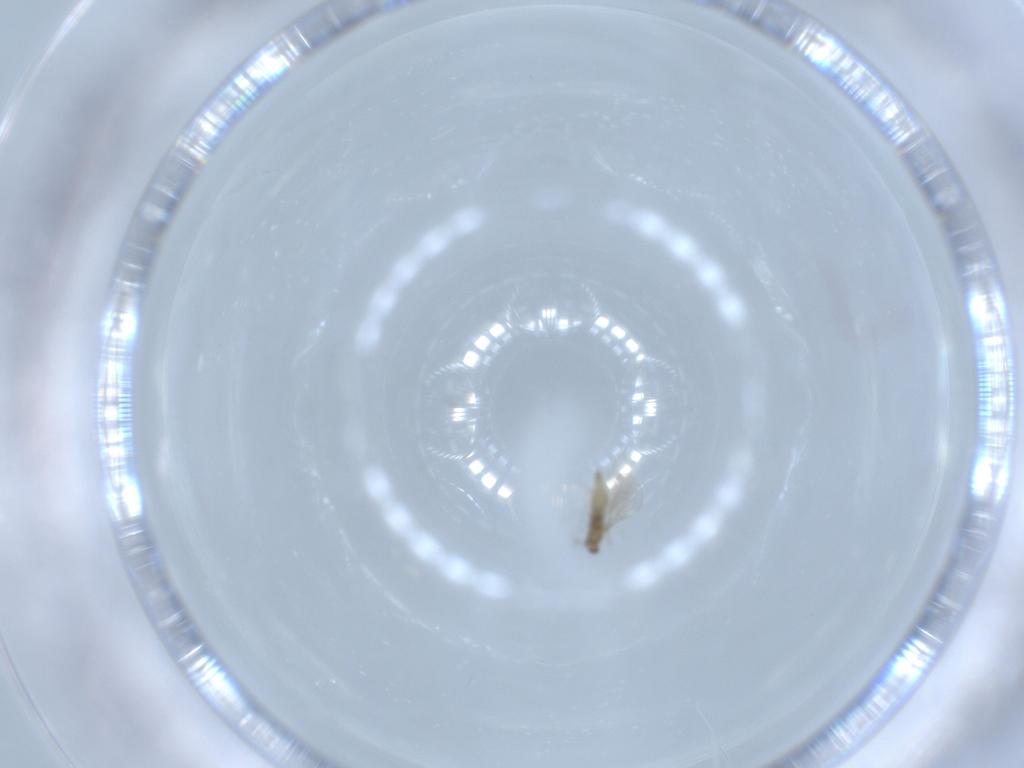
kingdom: Animalia
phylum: Arthropoda
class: Insecta
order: Diptera
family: Cecidomyiidae
